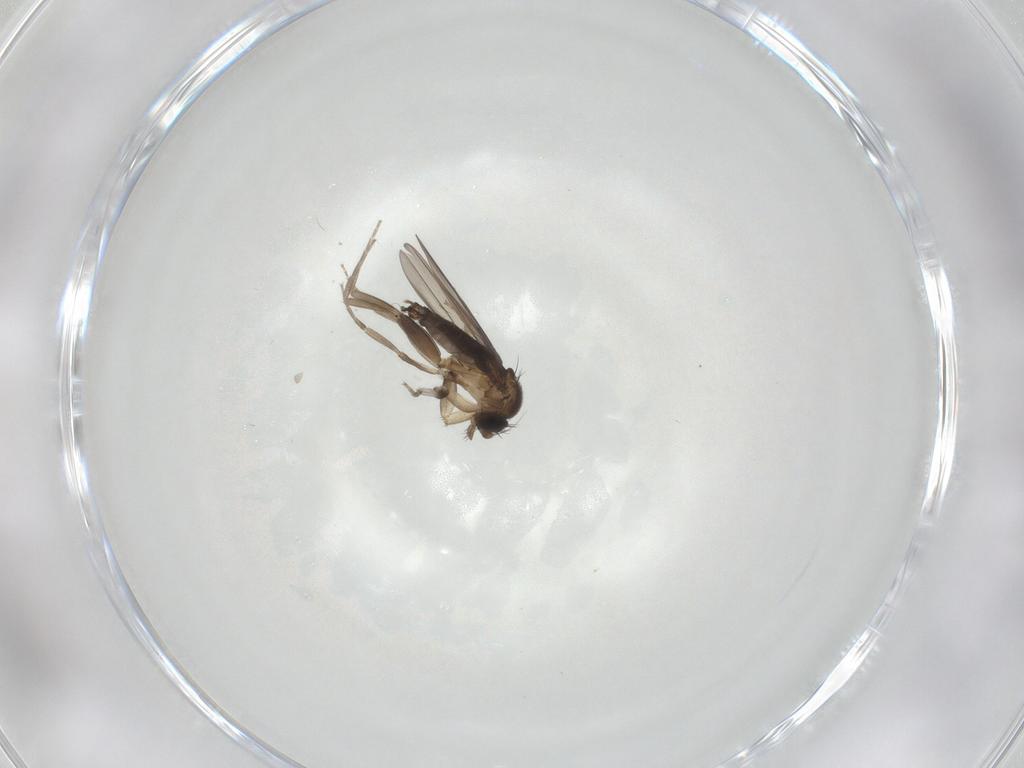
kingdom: Animalia
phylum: Arthropoda
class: Insecta
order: Diptera
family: Phoridae
